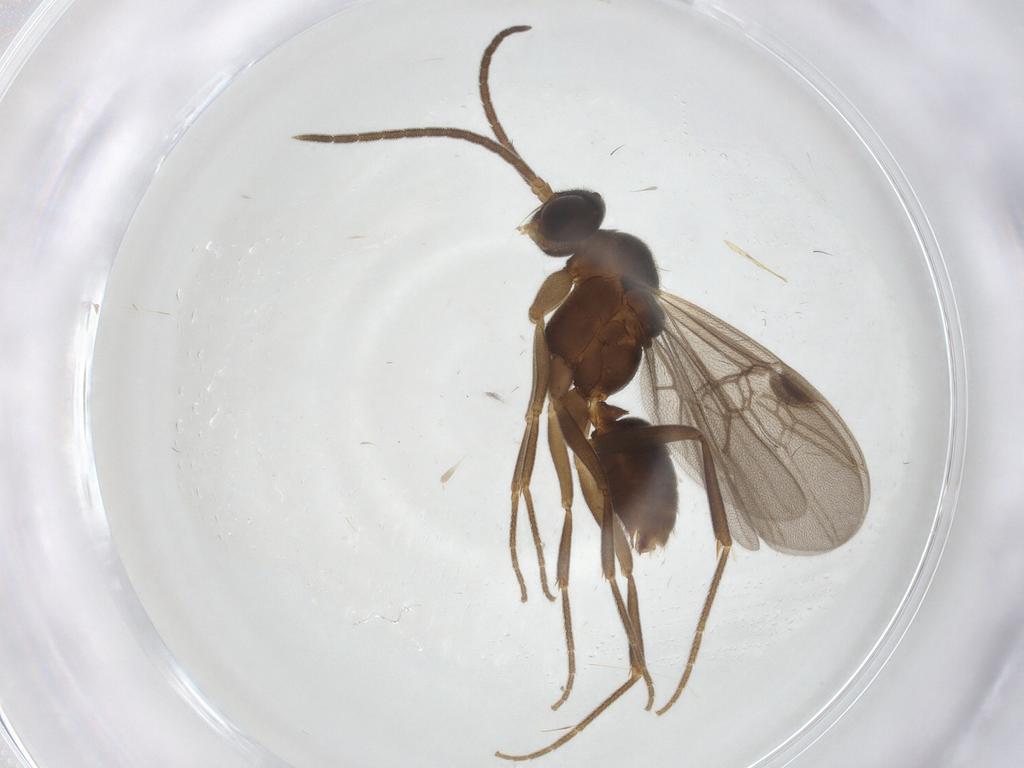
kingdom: Animalia
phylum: Arthropoda
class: Insecta
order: Hymenoptera
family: Formicidae
